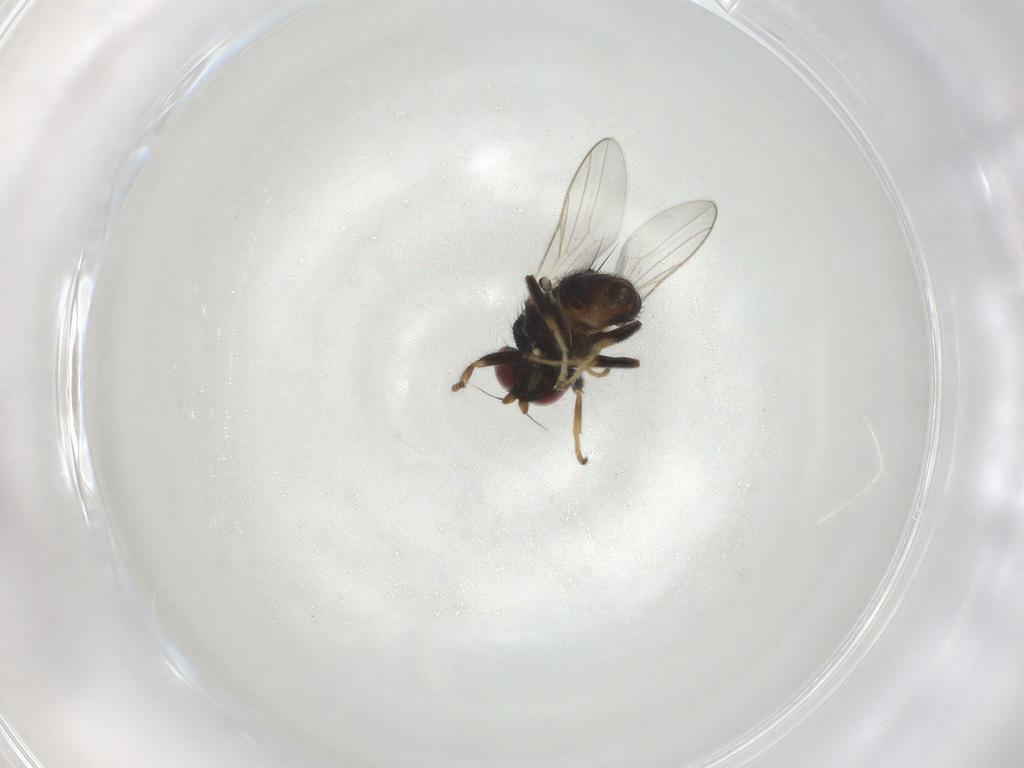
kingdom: Animalia
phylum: Arthropoda
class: Insecta
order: Diptera
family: Chloropidae
